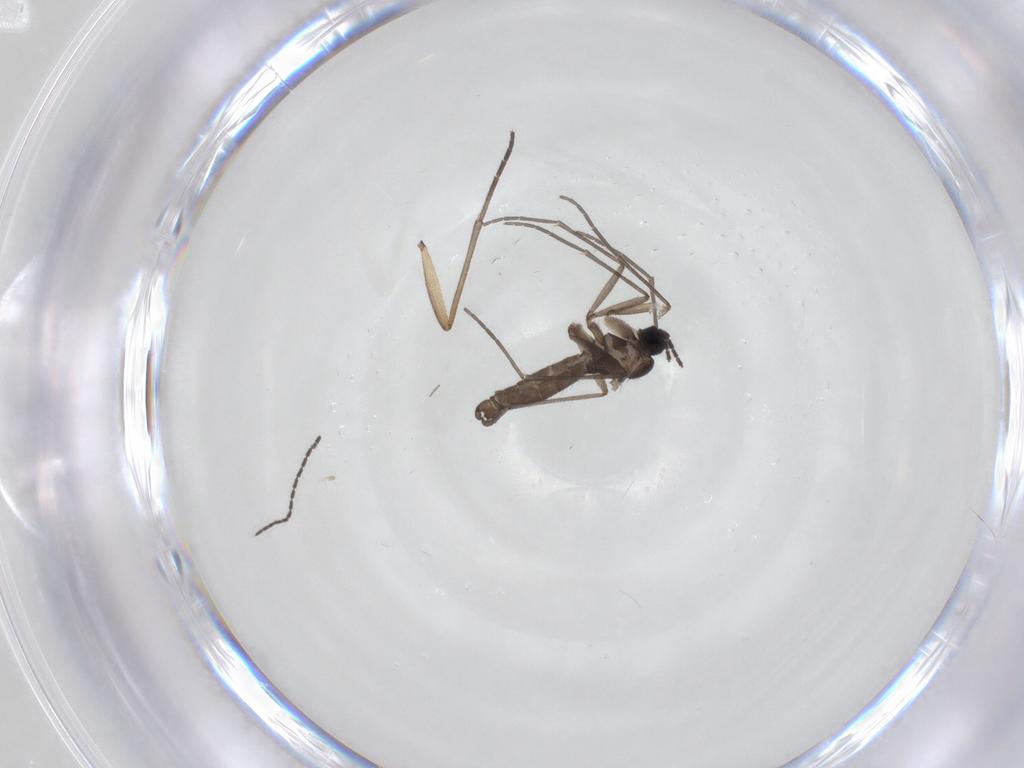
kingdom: Animalia
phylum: Arthropoda
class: Insecta
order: Diptera
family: Sciaridae
